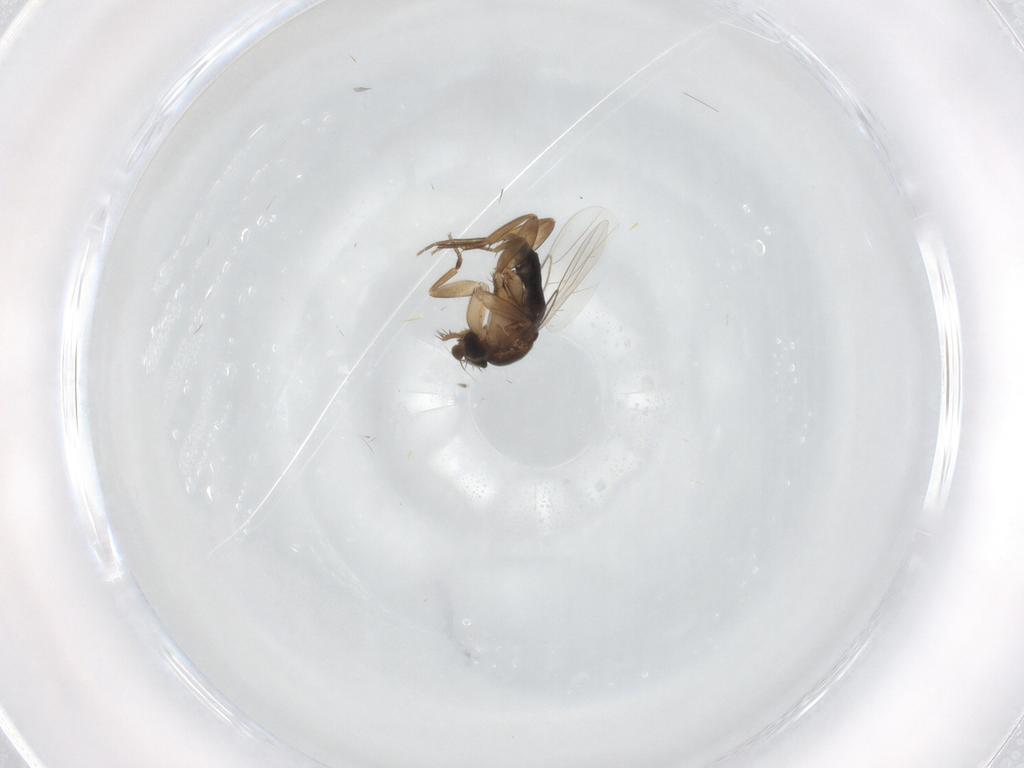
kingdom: Animalia
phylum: Arthropoda
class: Insecta
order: Diptera
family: Phoridae
